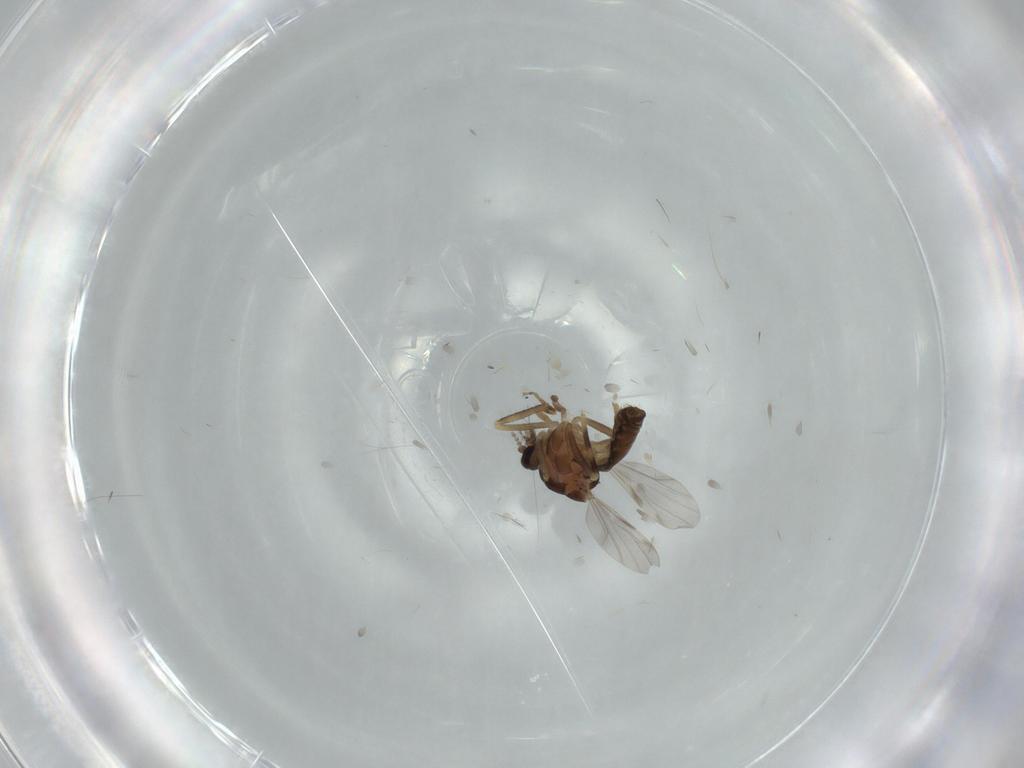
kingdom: Animalia
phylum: Arthropoda
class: Insecta
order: Diptera
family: Ceratopogonidae
